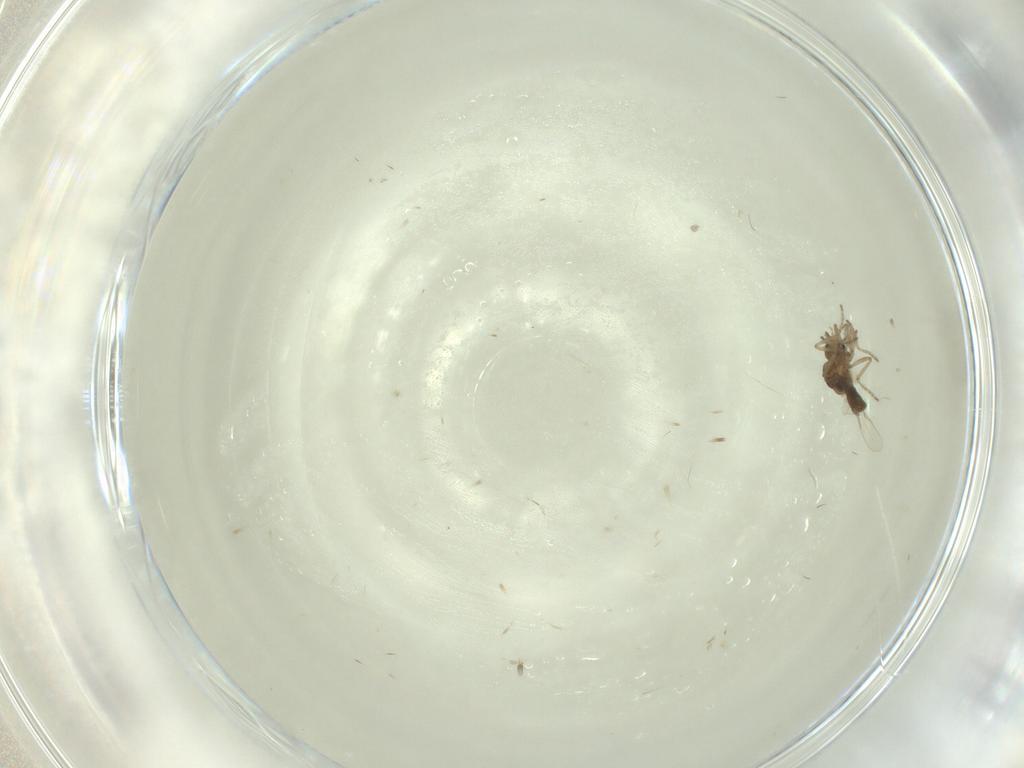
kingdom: Animalia
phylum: Arthropoda
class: Insecta
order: Diptera
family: Ceratopogonidae
